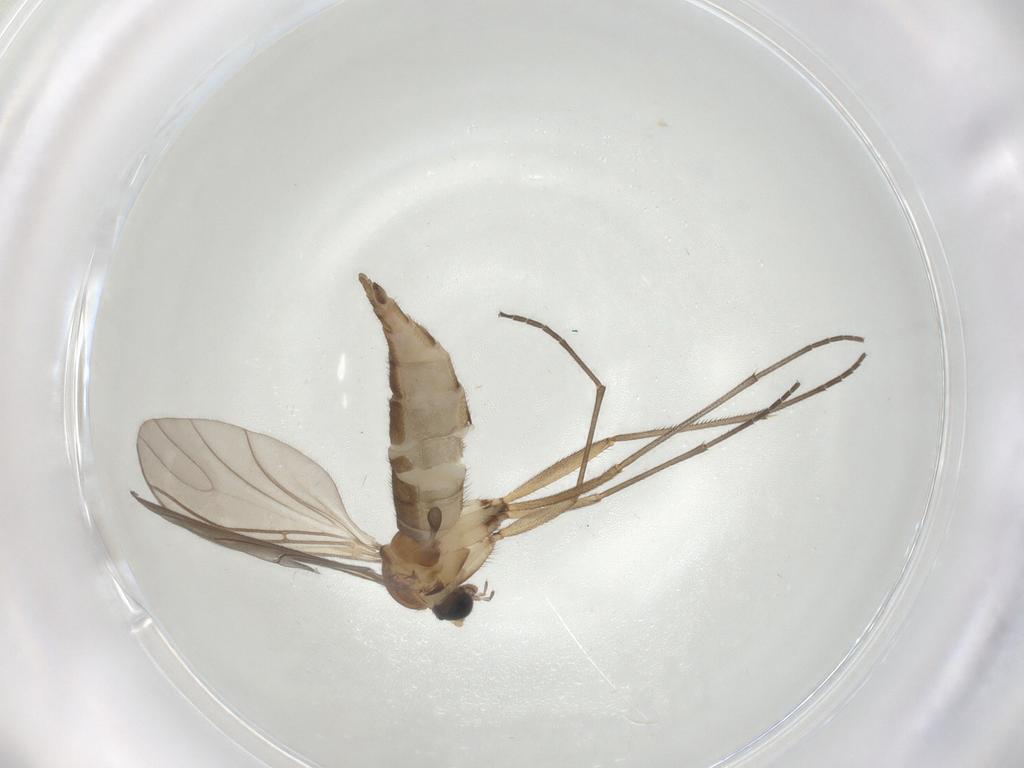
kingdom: Animalia
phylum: Arthropoda
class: Insecta
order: Diptera
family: Sciaridae
